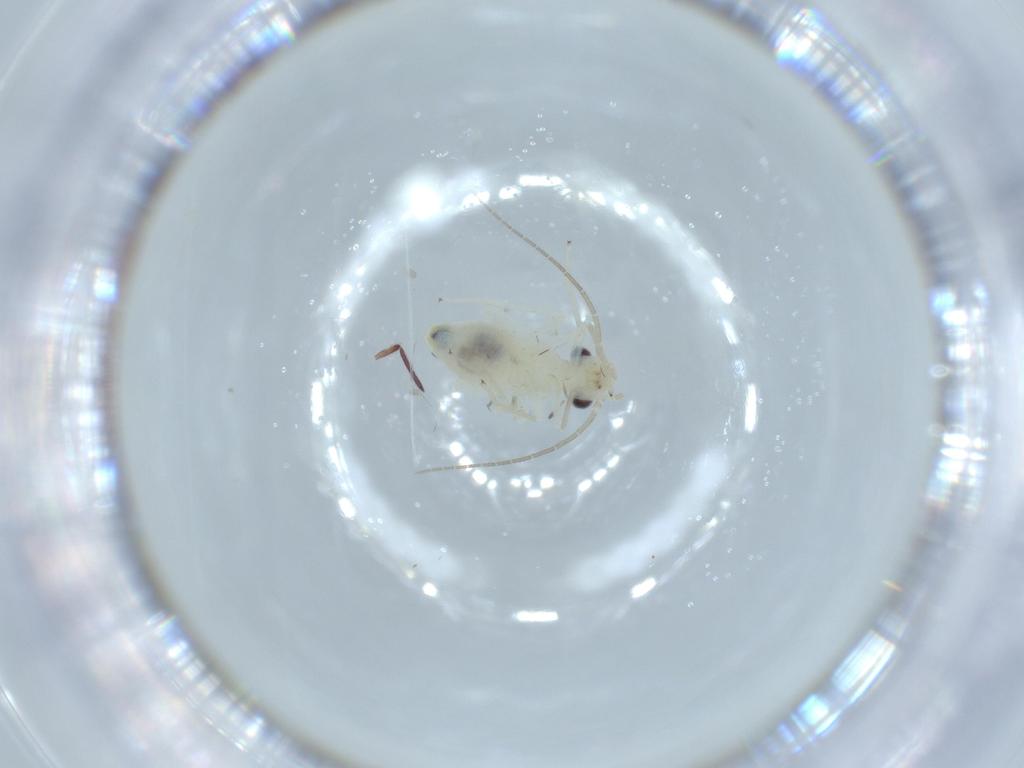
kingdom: Animalia
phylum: Arthropoda
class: Insecta
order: Psocodea
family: Caeciliusidae
